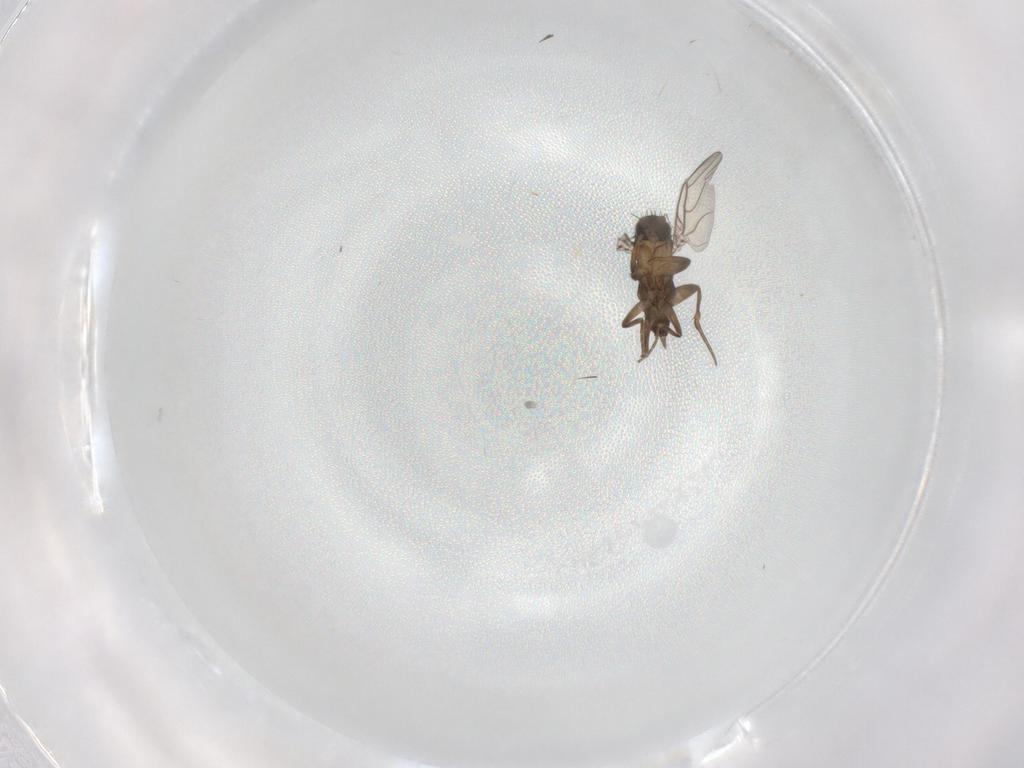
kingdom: Animalia
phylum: Arthropoda
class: Insecta
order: Diptera
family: Phoridae
